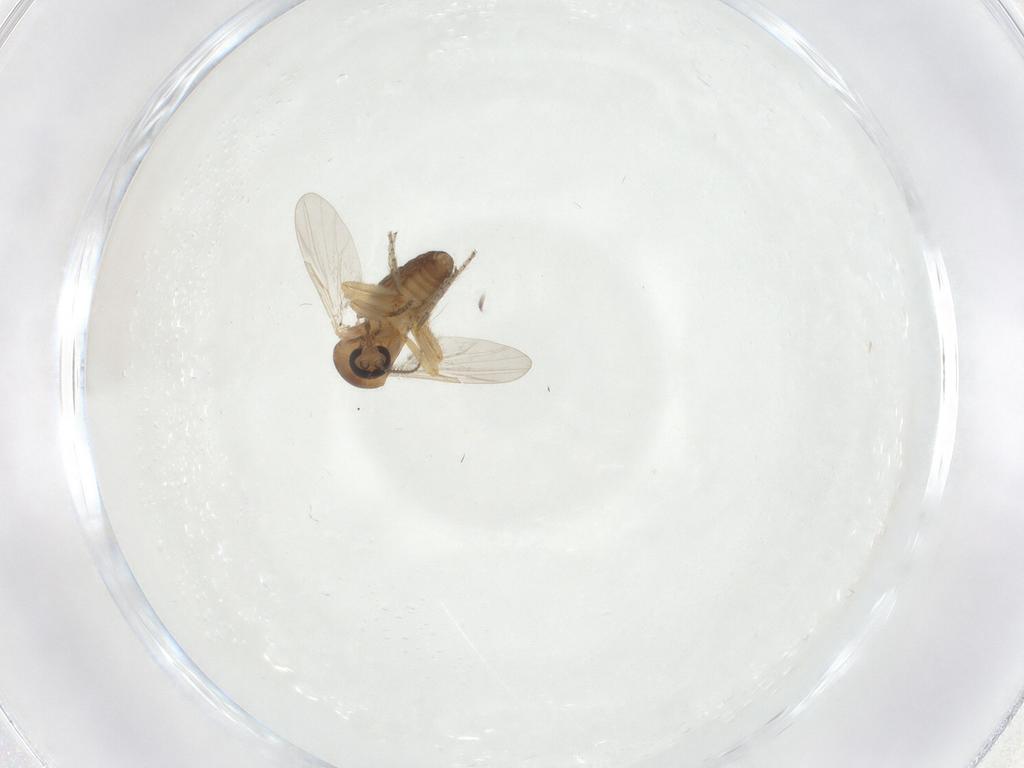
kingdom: Animalia
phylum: Arthropoda
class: Insecta
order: Diptera
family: Ceratopogonidae
